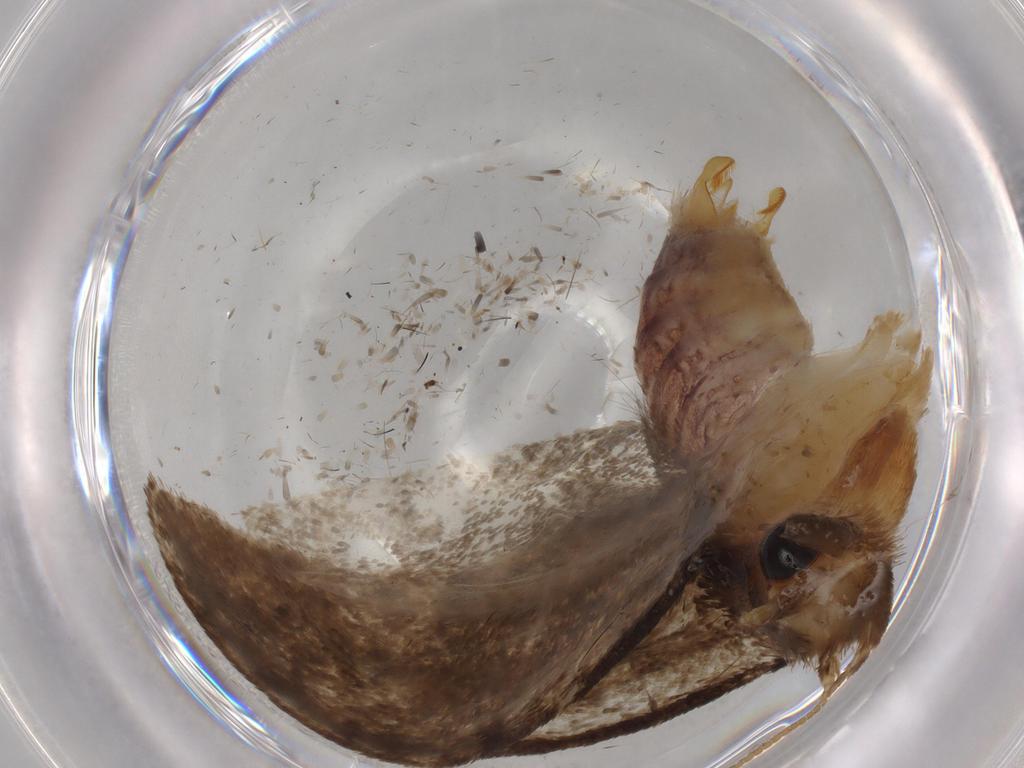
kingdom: Animalia
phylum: Arthropoda
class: Insecta
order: Lepidoptera
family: Tineidae
